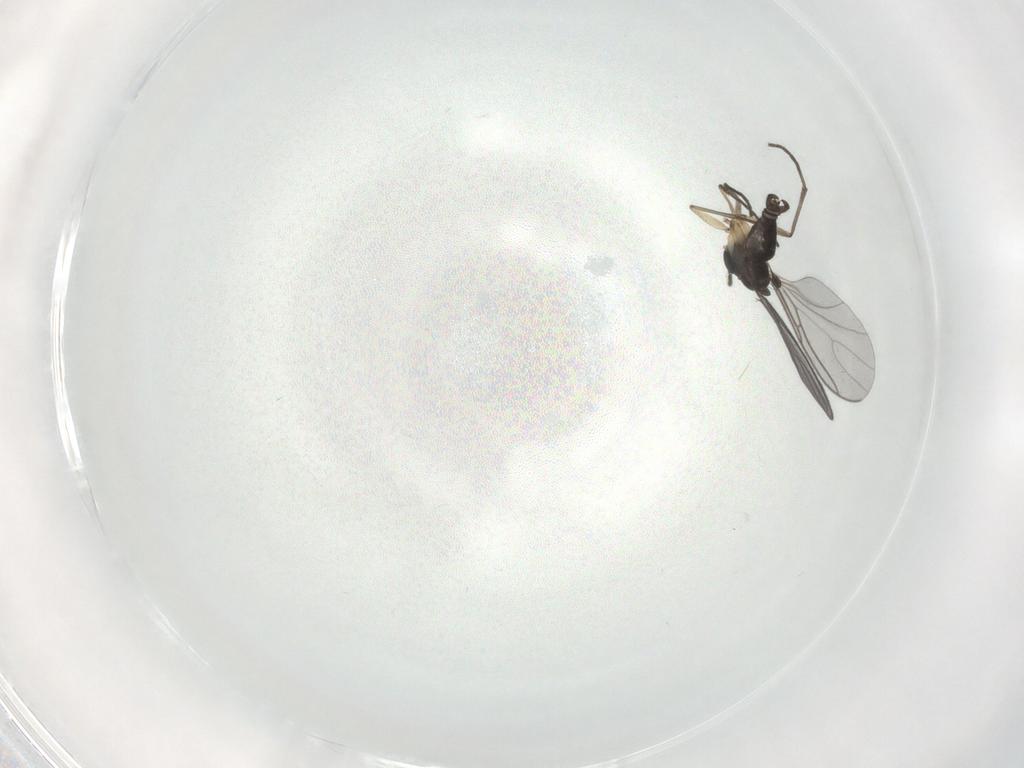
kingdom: Animalia
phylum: Arthropoda
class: Insecta
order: Diptera
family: Sciaridae
